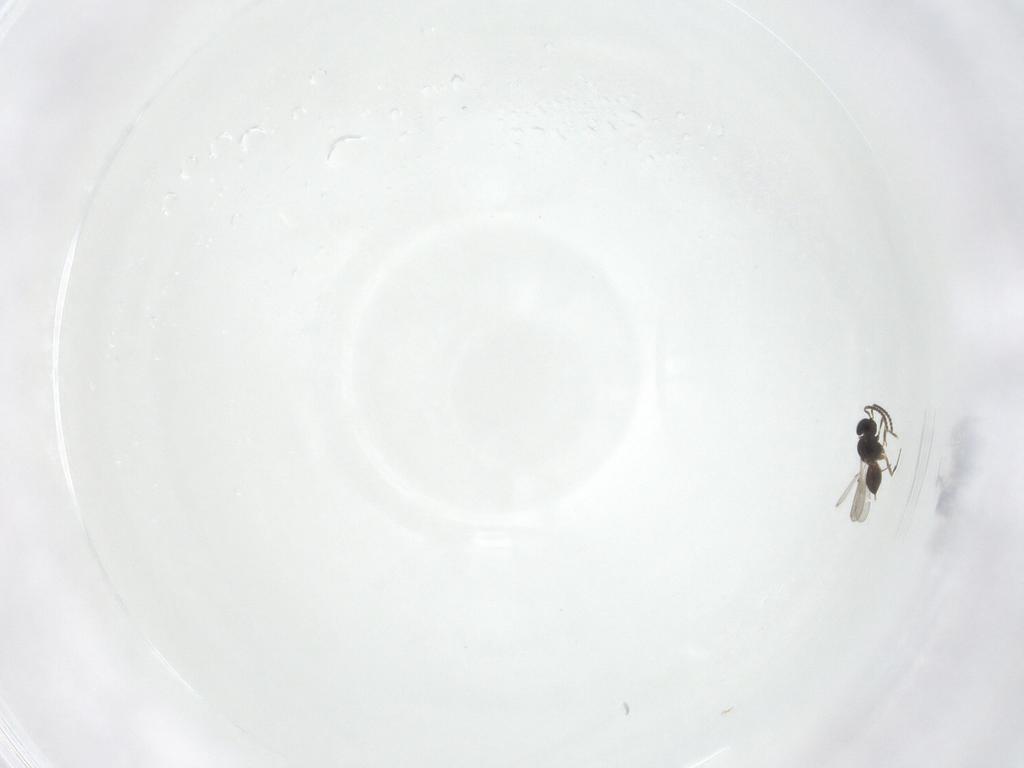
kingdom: Animalia
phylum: Arthropoda
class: Insecta
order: Hymenoptera
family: Scelionidae
